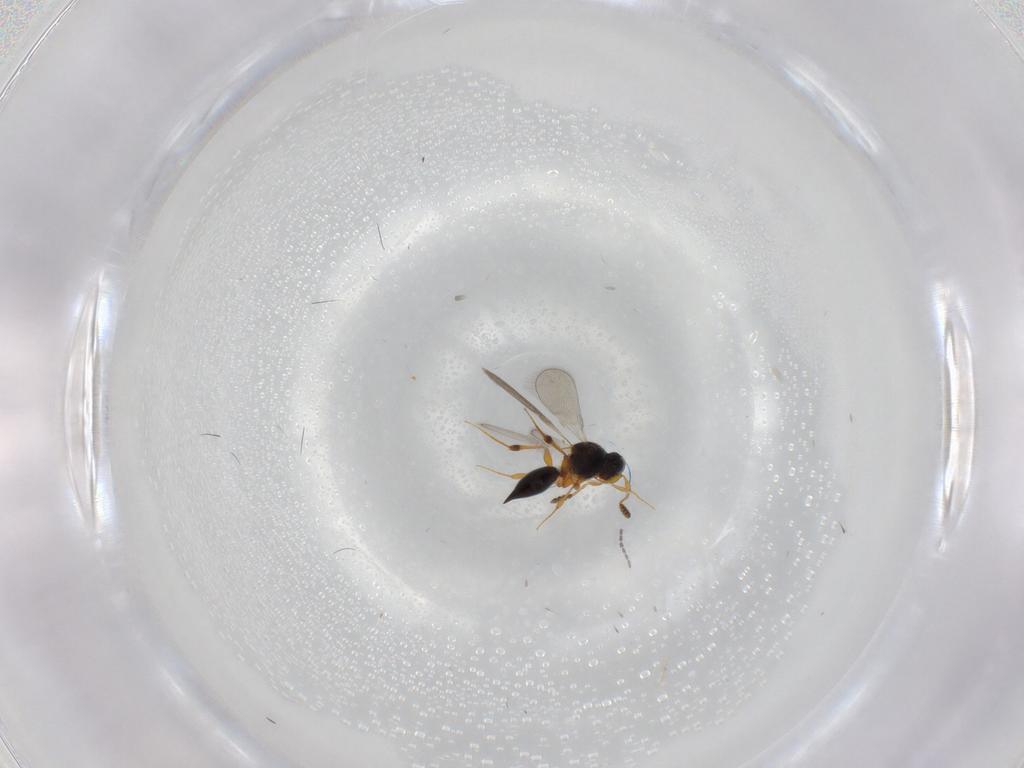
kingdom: Animalia
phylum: Arthropoda
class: Insecta
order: Hymenoptera
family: Platygastridae
